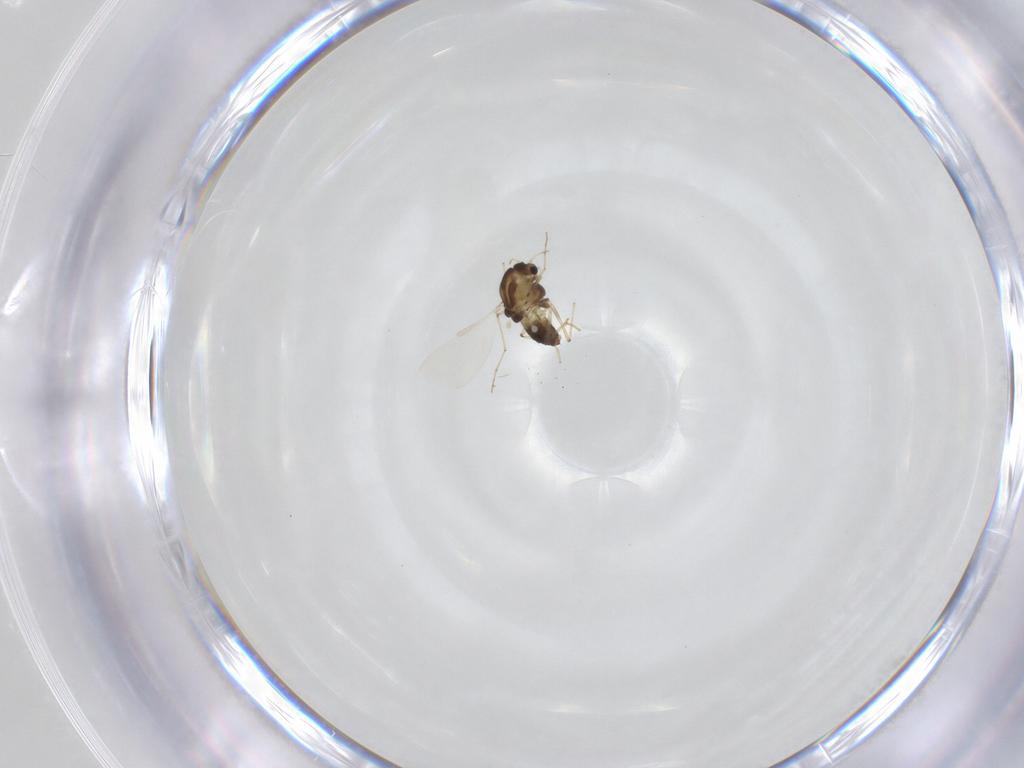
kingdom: Animalia
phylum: Arthropoda
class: Insecta
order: Diptera
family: Chironomidae
